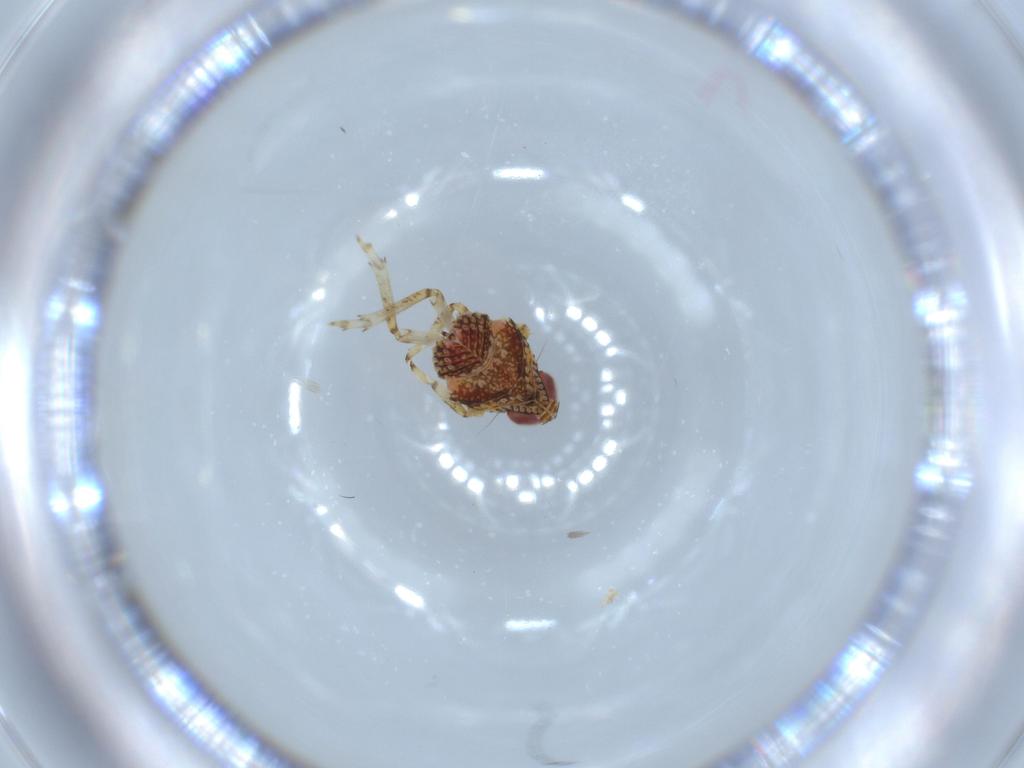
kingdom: Animalia
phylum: Arthropoda
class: Insecta
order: Hemiptera
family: Issidae
